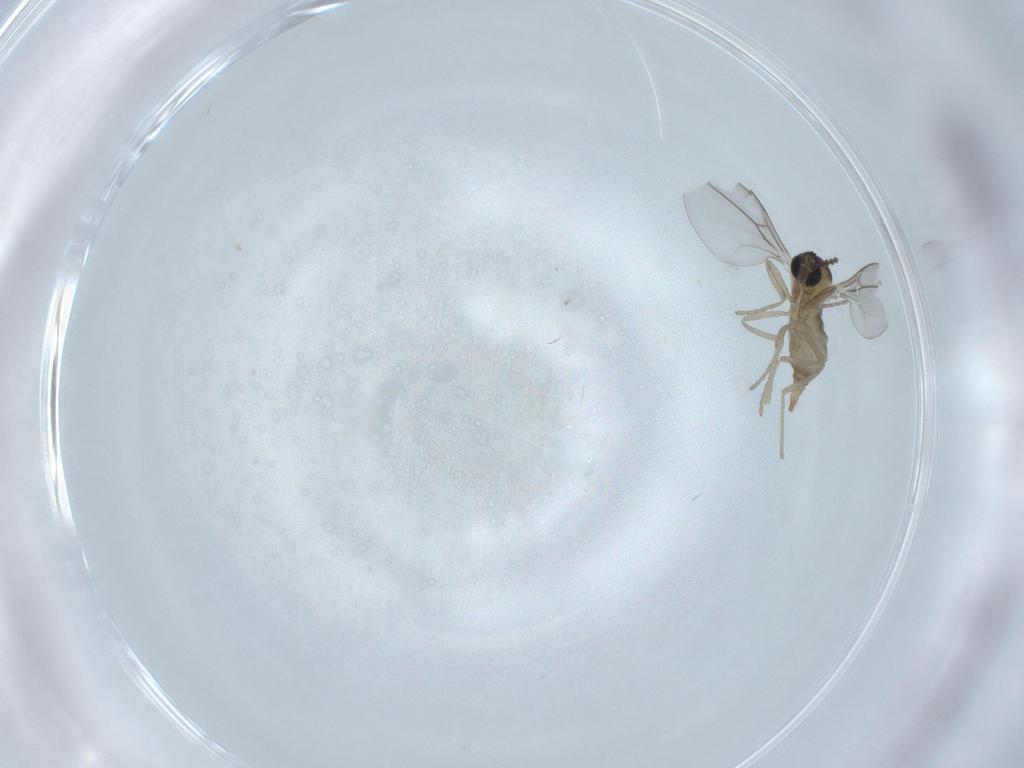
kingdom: Animalia
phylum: Arthropoda
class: Insecta
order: Diptera
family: Cecidomyiidae
